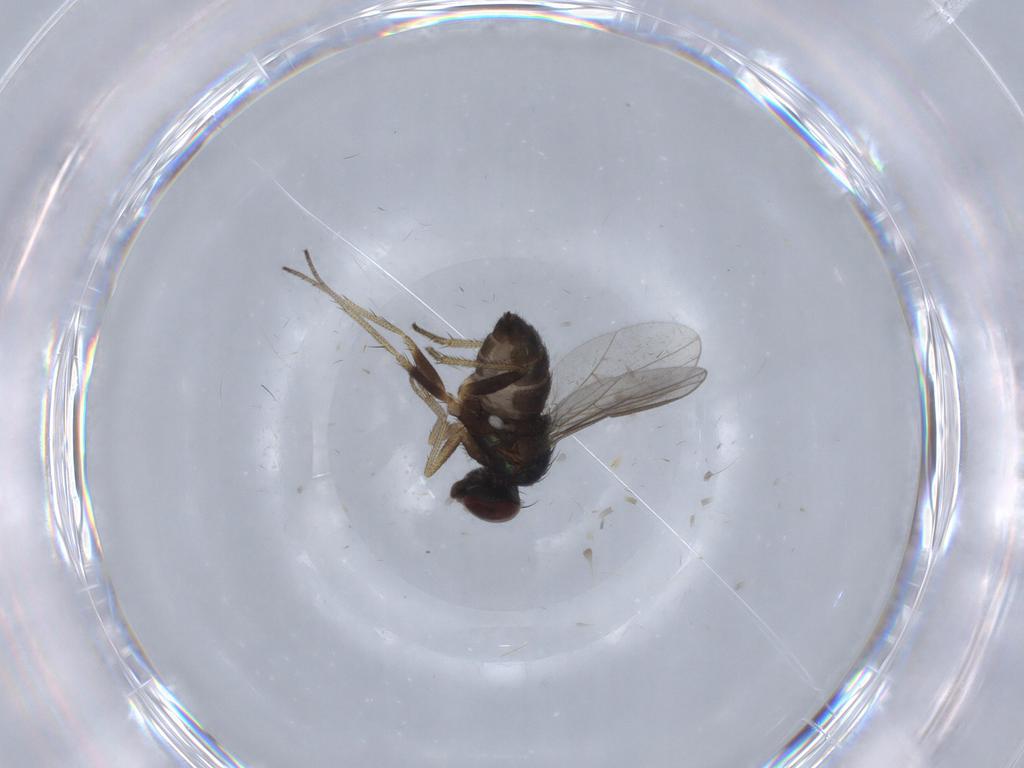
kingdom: Animalia
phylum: Arthropoda
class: Insecta
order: Diptera
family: Dolichopodidae
